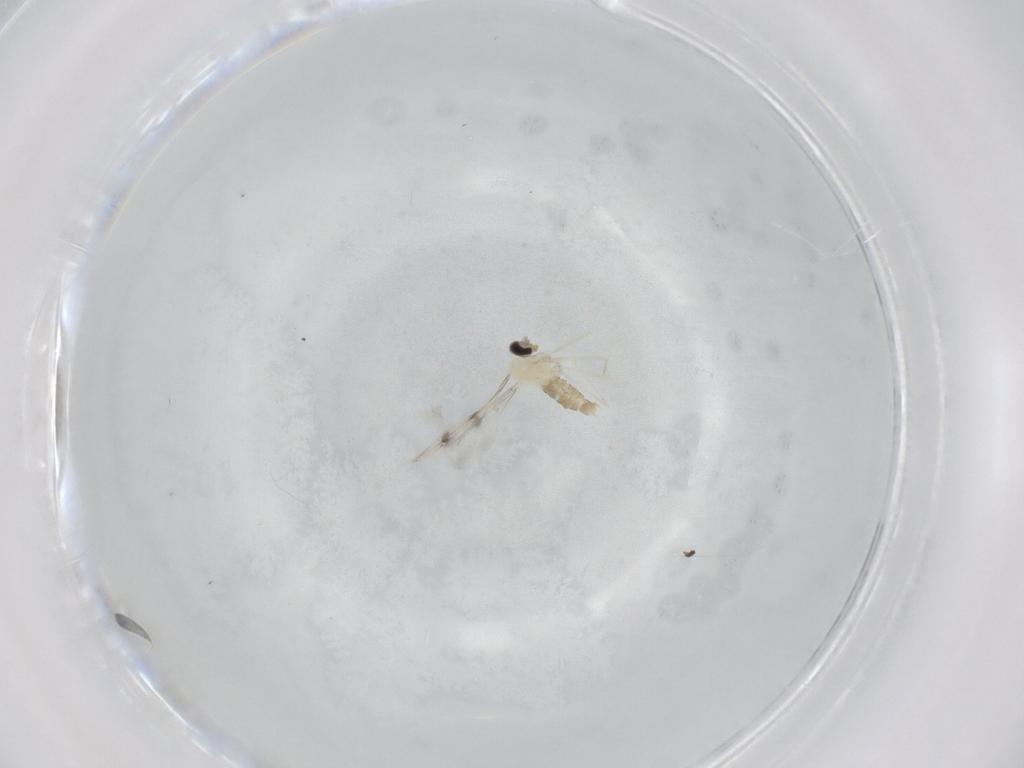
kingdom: Animalia
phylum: Arthropoda
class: Insecta
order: Diptera
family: Cecidomyiidae
